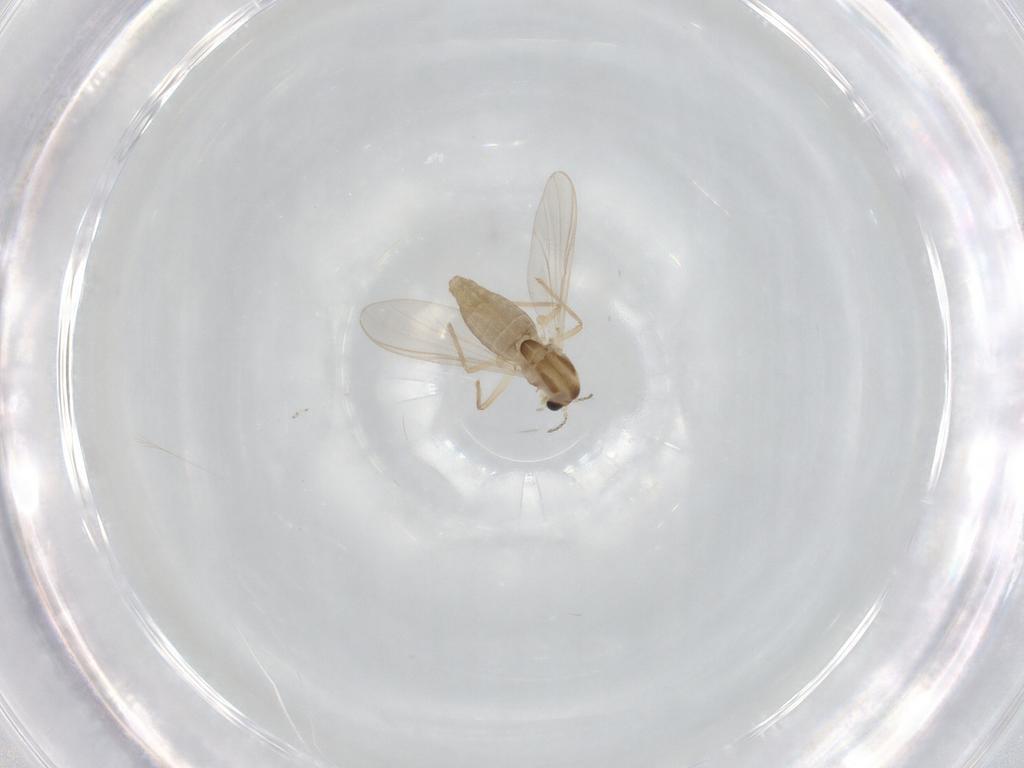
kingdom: Animalia
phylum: Arthropoda
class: Insecta
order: Diptera
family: Chironomidae
